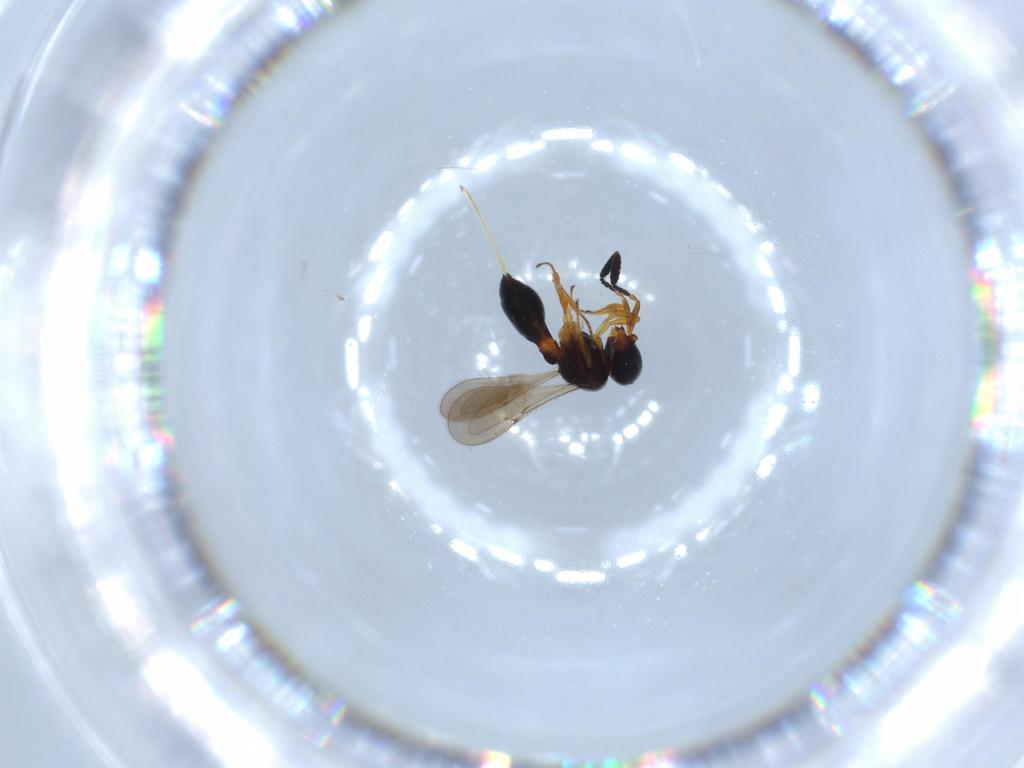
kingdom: Animalia
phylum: Arthropoda
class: Insecta
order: Hymenoptera
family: Scelionidae
